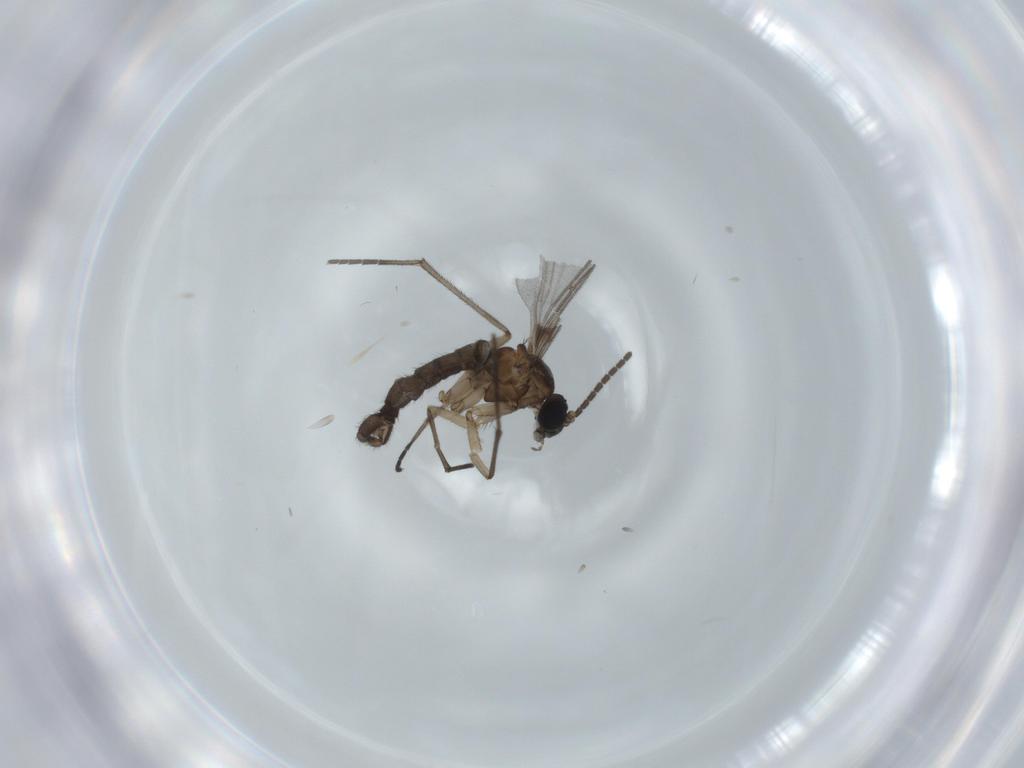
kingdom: Animalia
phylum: Arthropoda
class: Insecta
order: Diptera
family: Sciaridae
